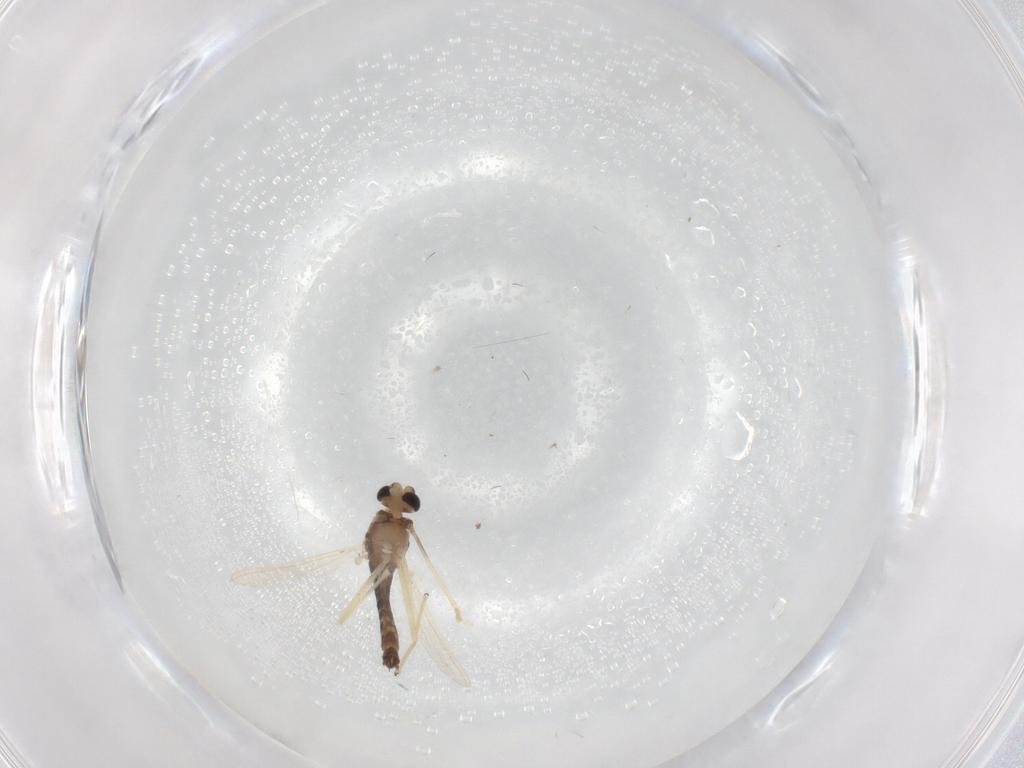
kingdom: Animalia
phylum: Arthropoda
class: Insecta
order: Diptera
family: Chironomidae
